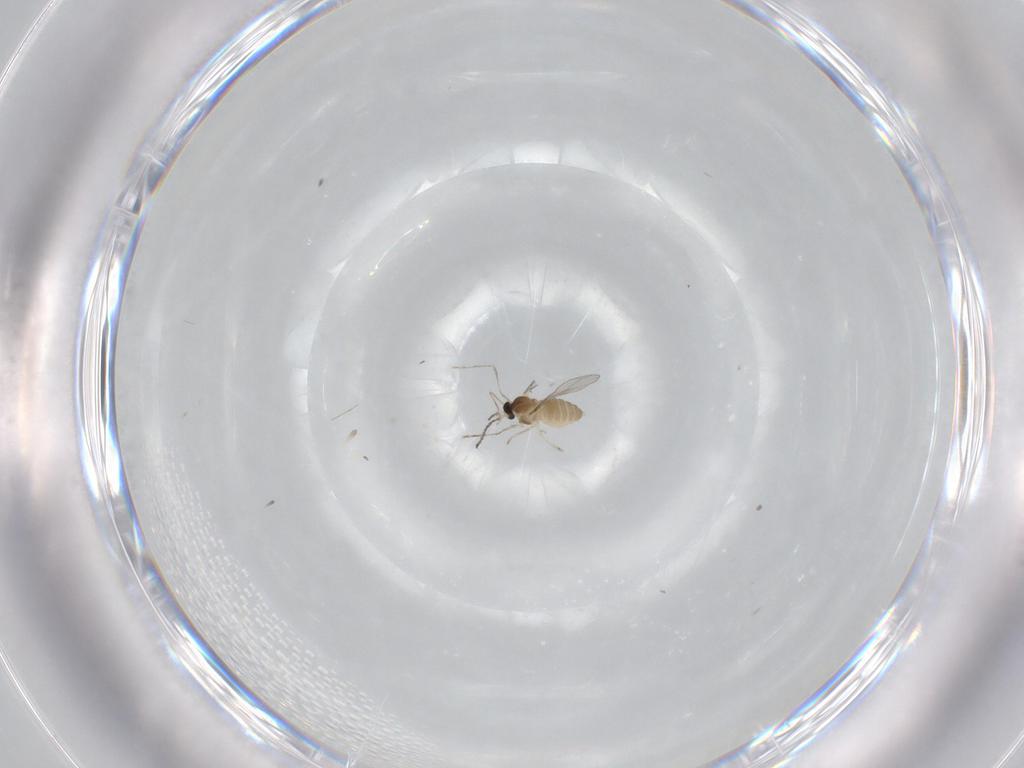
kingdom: Animalia
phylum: Arthropoda
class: Insecta
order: Diptera
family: Cecidomyiidae
